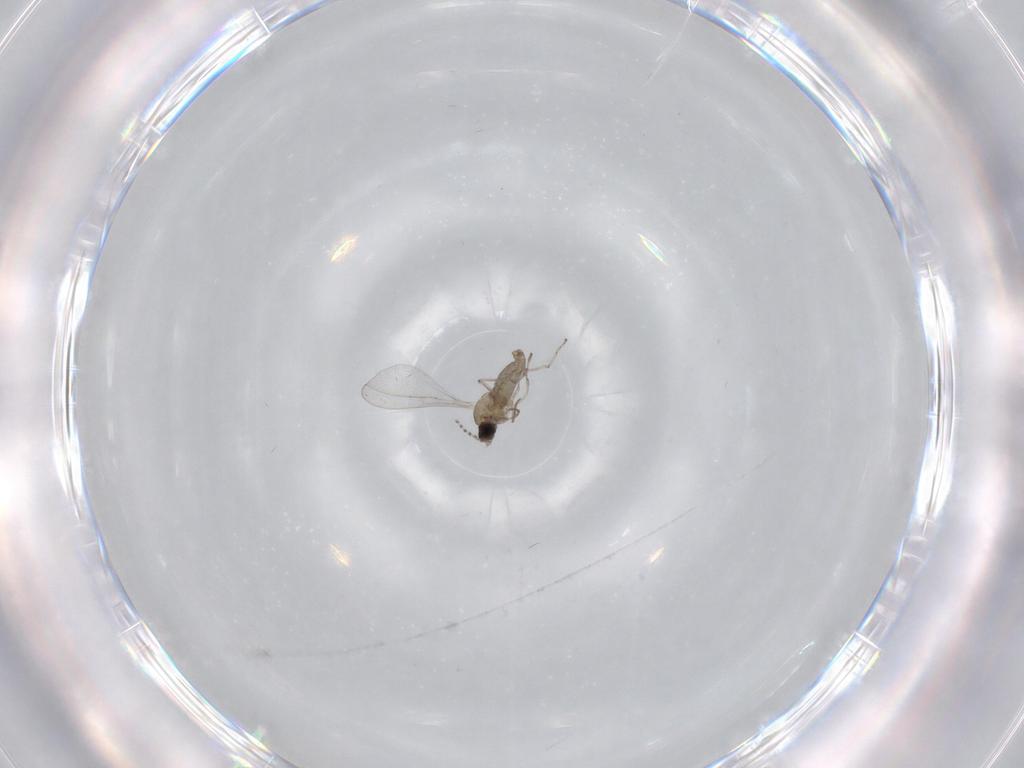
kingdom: Animalia
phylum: Arthropoda
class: Insecta
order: Diptera
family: Cecidomyiidae
